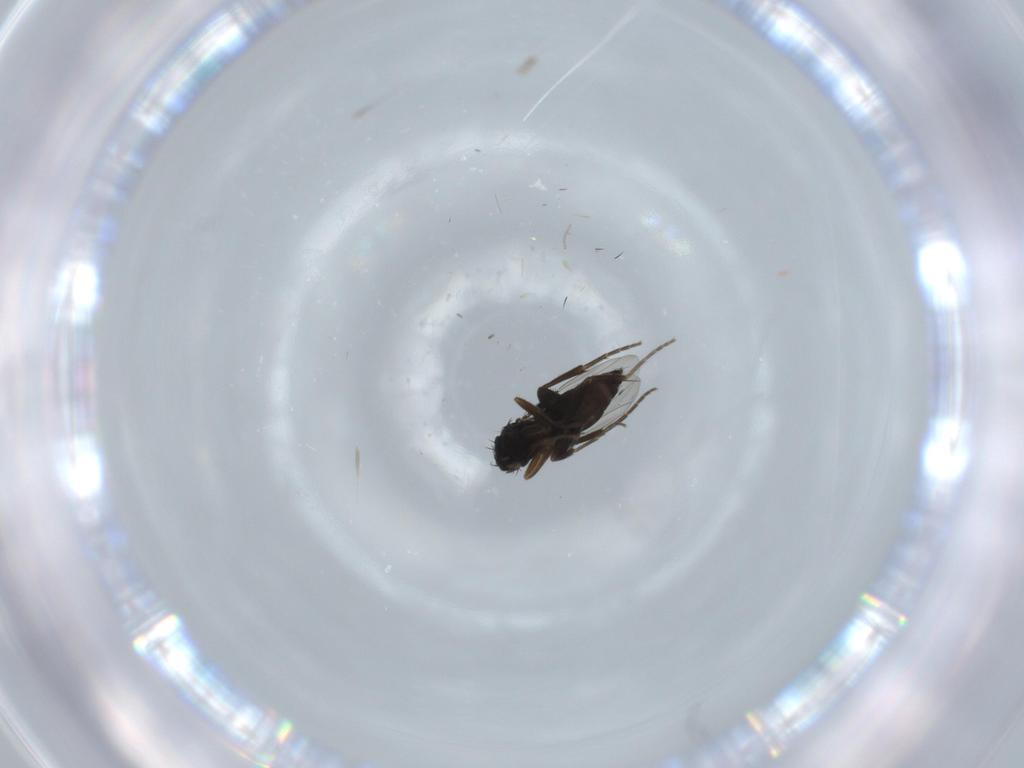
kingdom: Animalia
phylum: Arthropoda
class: Insecta
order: Diptera
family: Cecidomyiidae
